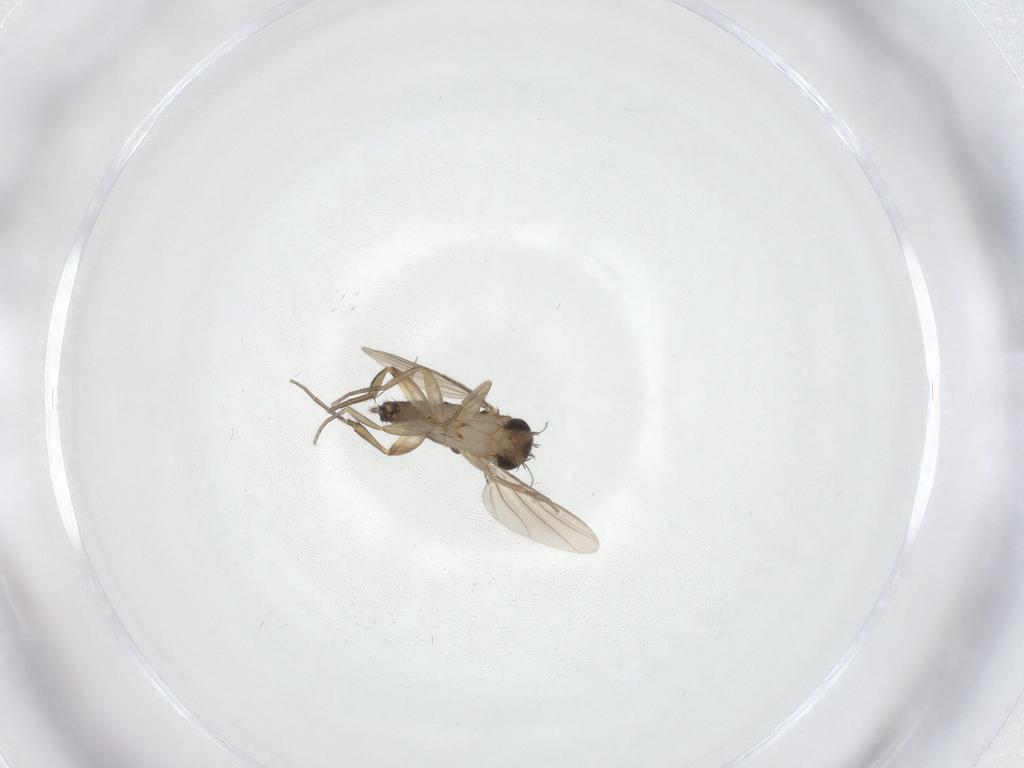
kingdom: Animalia
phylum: Arthropoda
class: Insecta
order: Diptera
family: Phoridae
